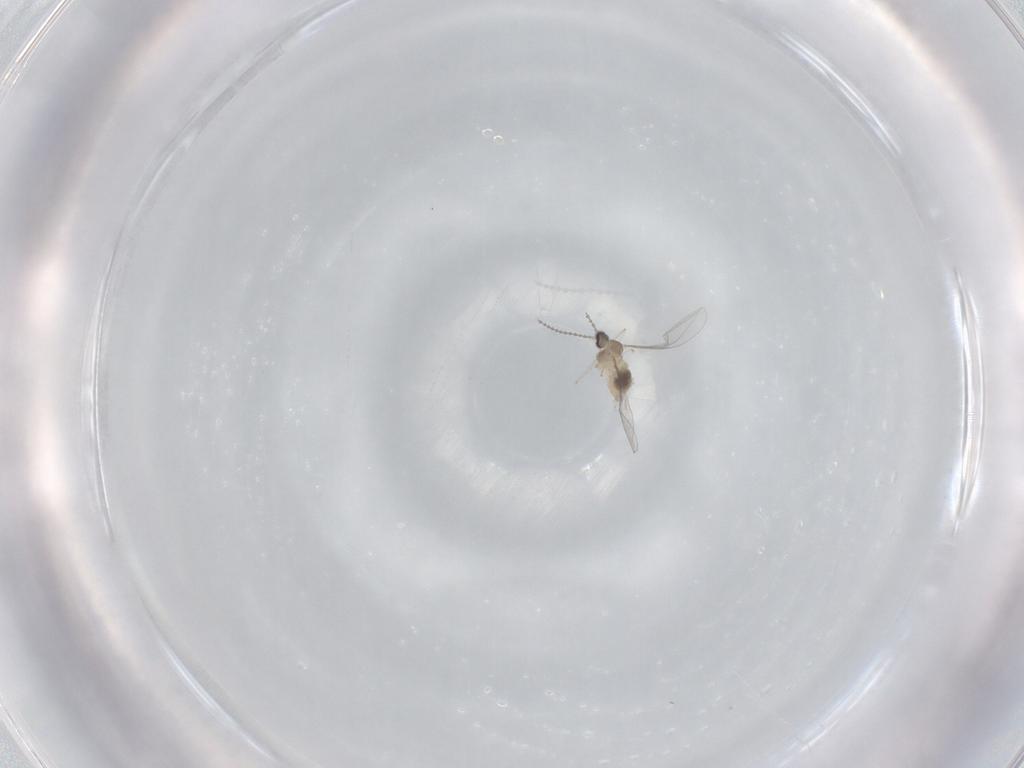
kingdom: Animalia
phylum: Arthropoda
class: Insecta
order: Diptera
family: Cecidomyiidae
